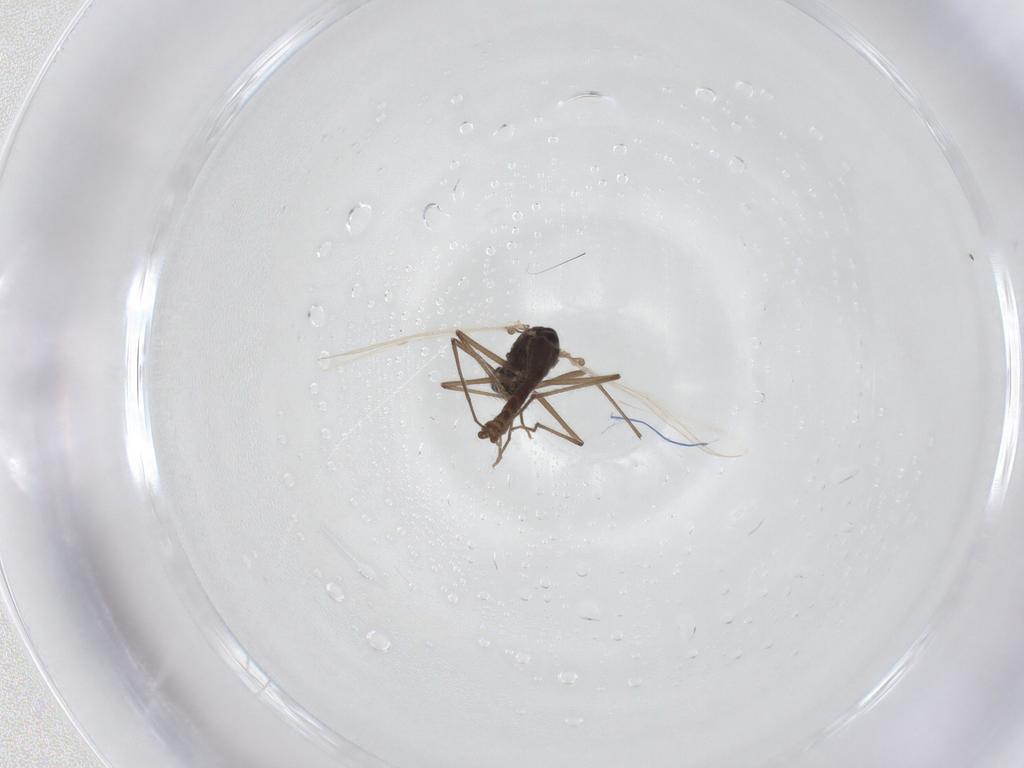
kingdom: Animalia
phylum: Arthropoda
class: Insecta
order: Diptera
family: Chironomidae
